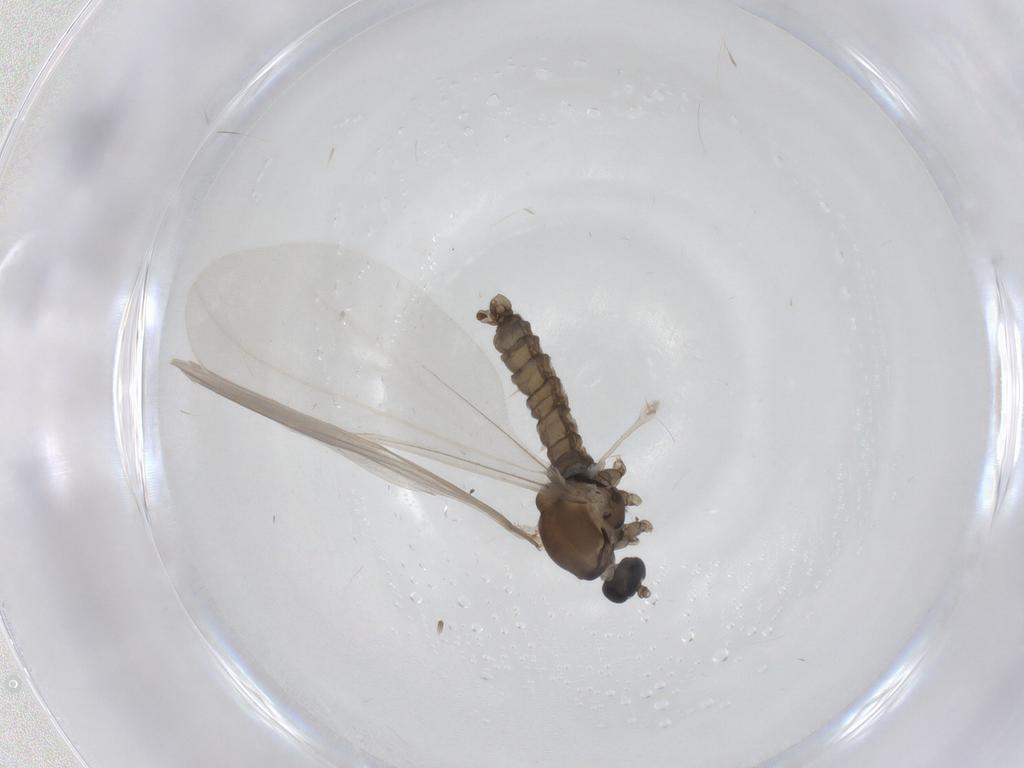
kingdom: Animalia
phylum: Arthropoda
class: Insecta
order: Diptera
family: Cecidomyiidae
